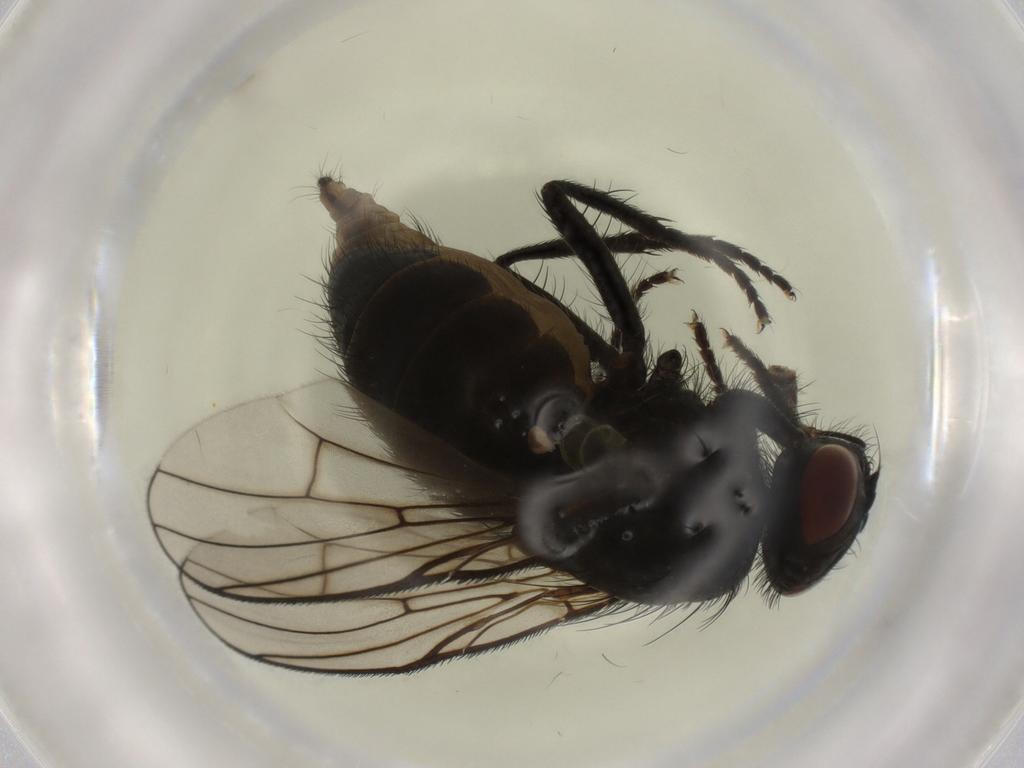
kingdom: Animalia
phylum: Arthropoda
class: Insecta
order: Diptera
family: Muscidae
